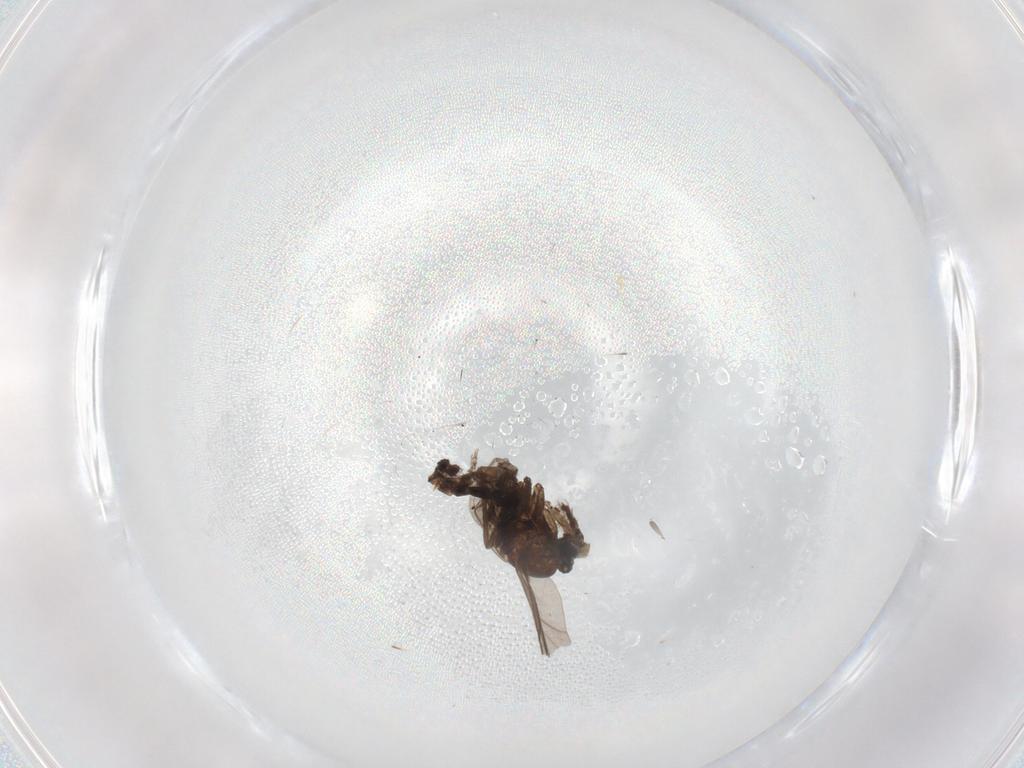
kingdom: Animalia
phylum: Arthropoda
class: Insecta
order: Diptera
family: Sciaridae
